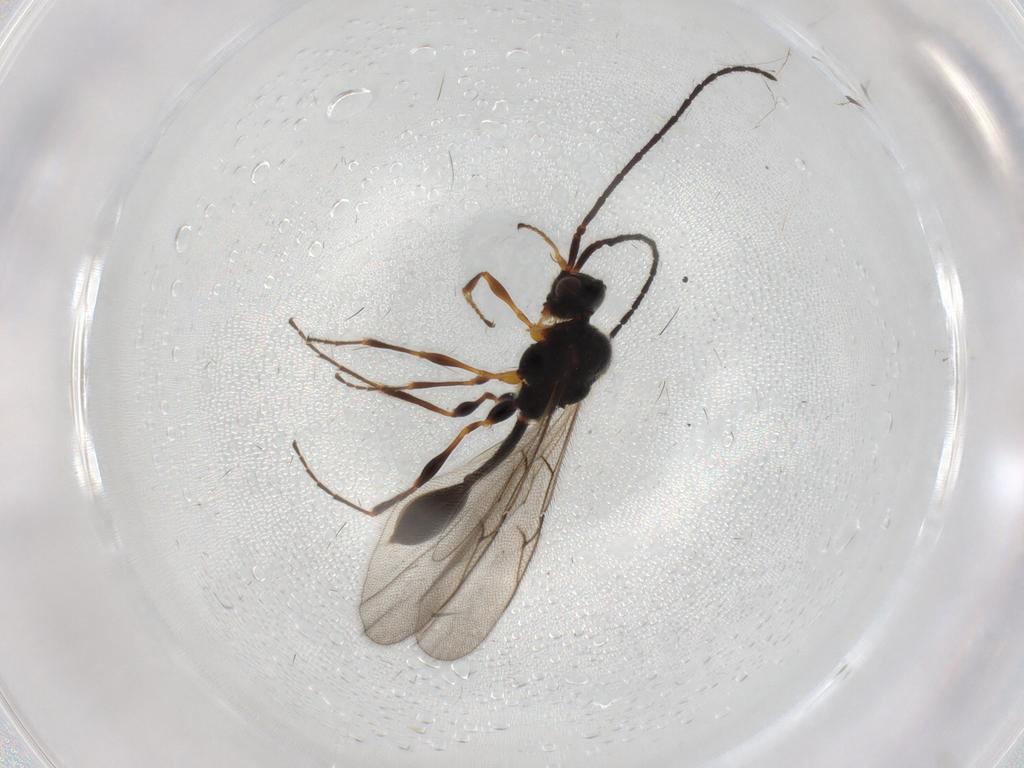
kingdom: Animalia
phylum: Arthropoda
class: Insecta
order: Hymenoptera
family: Diapriidae
